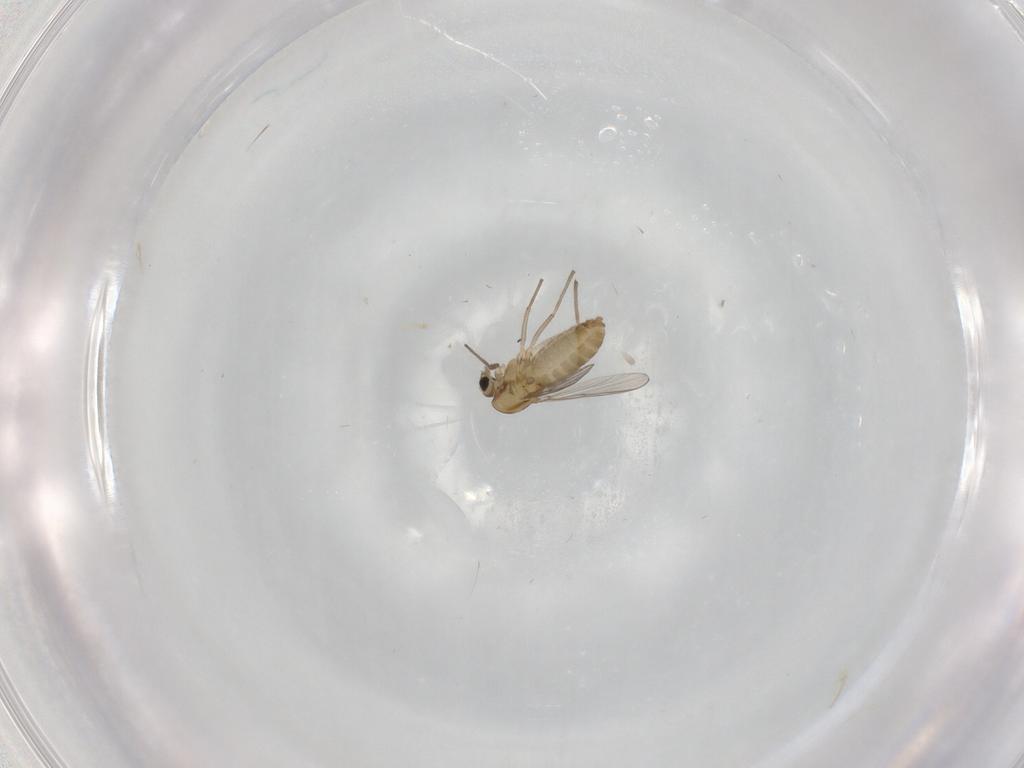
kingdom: Animalia
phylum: Arthropoda
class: Insecta
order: Diptera
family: Chironomidae
